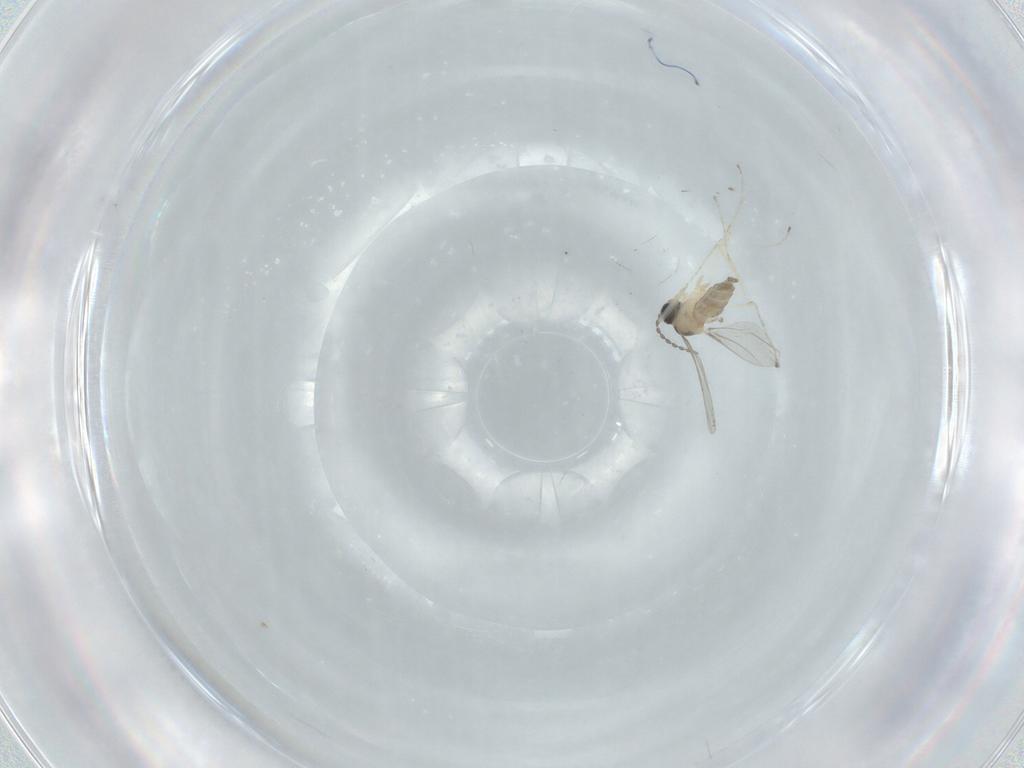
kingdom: Animalia
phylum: Arthropoda
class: Insecta
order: Diptera
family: Cecidomyiidae
